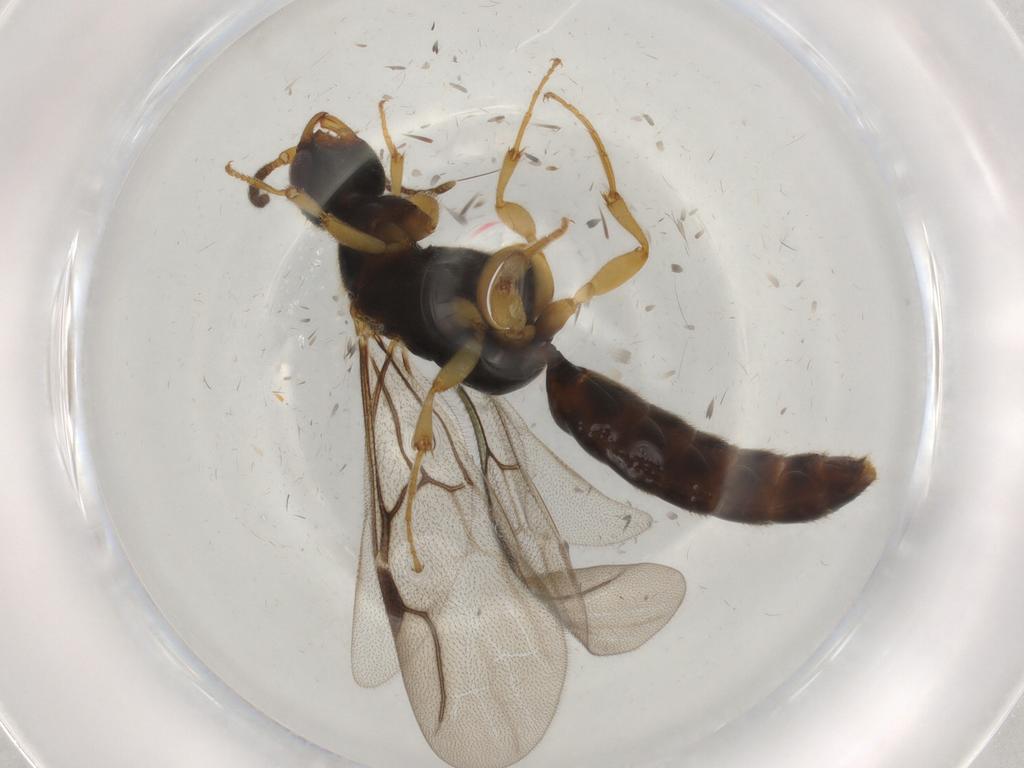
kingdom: Animalia
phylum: Arthropoda
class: Insecta
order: Hymenoptera
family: Bethylidae
